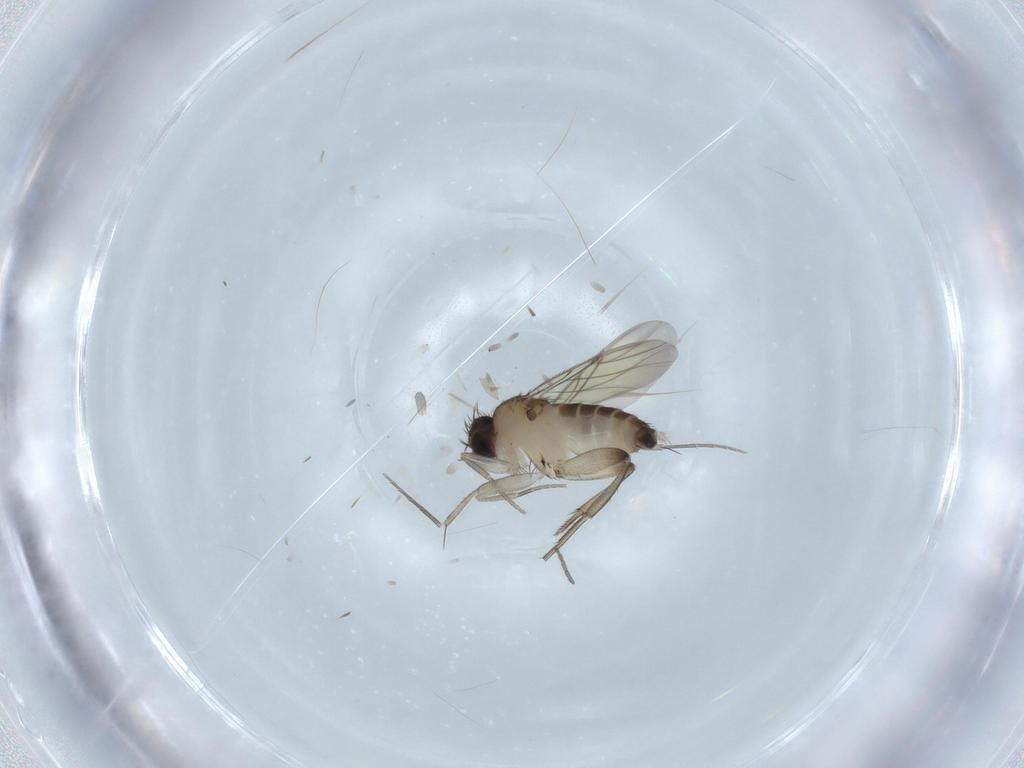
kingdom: Animalia
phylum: Arthropoda
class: Insecta
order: Diptera
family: Phoridae
